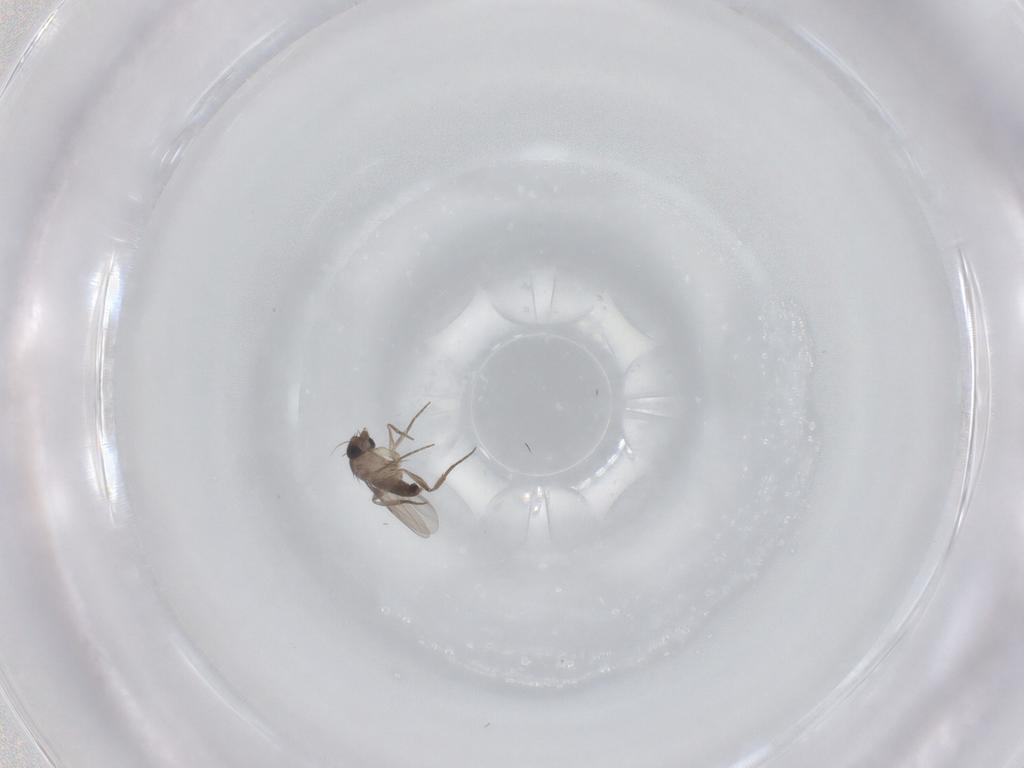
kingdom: Animalia
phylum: Arthropoda
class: Insecta
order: Diptera
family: Phoridae
